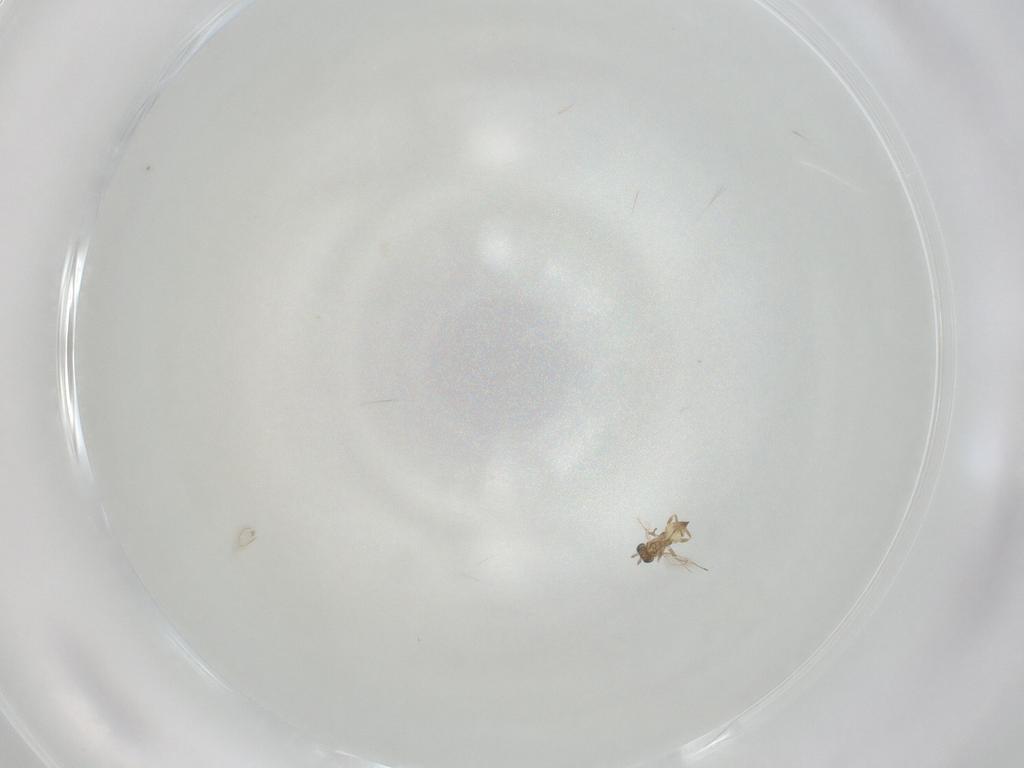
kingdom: Animalia
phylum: Arthropoda
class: Insecta
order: Hymenoptera
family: Trichogrammatidae
